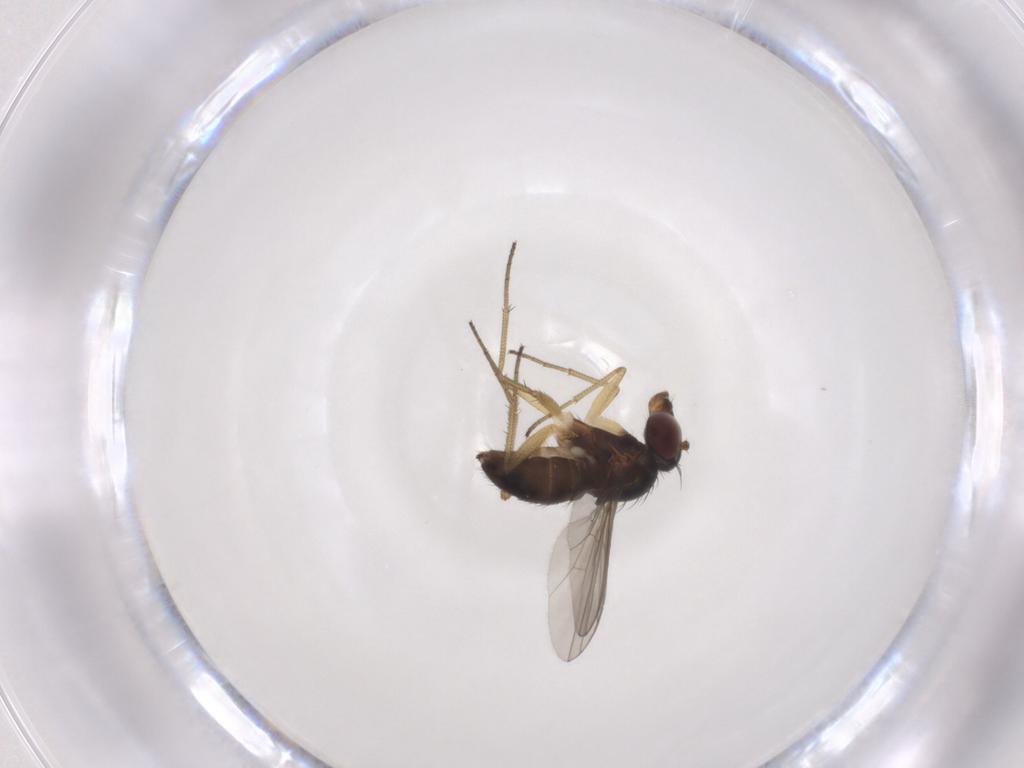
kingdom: Animalia
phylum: Arthropoda
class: Insecta
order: Diptera
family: Dolichopodidae
